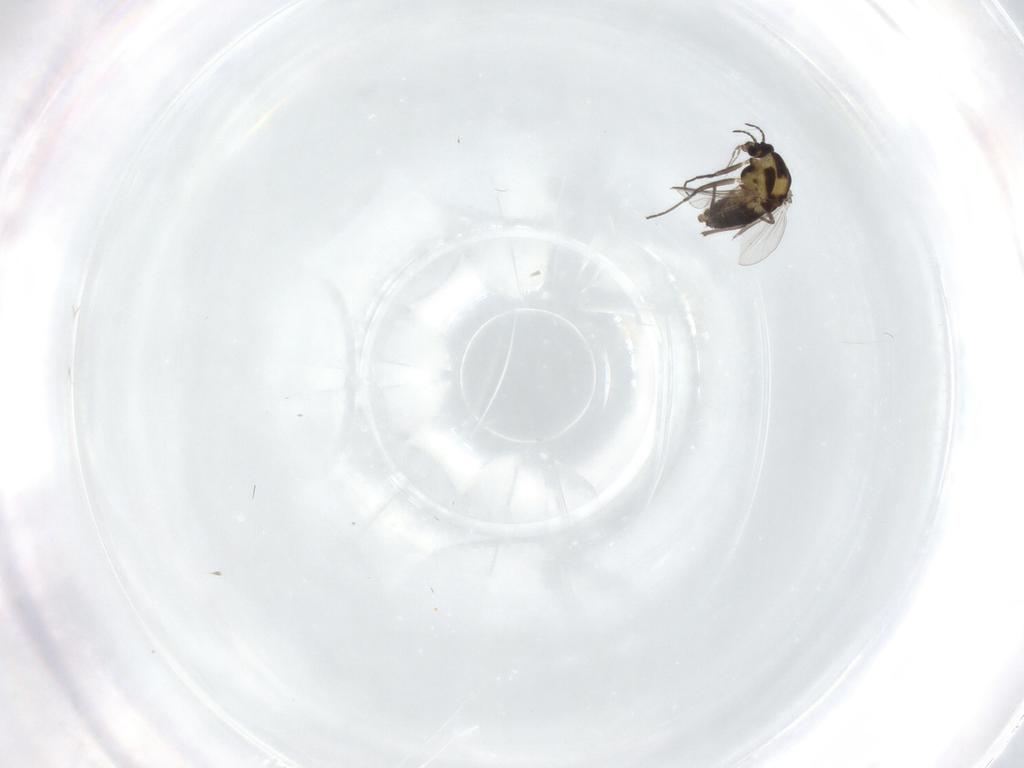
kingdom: Animalia
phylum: Arthropoda
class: Insecta
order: Diptera
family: Chironomidae
